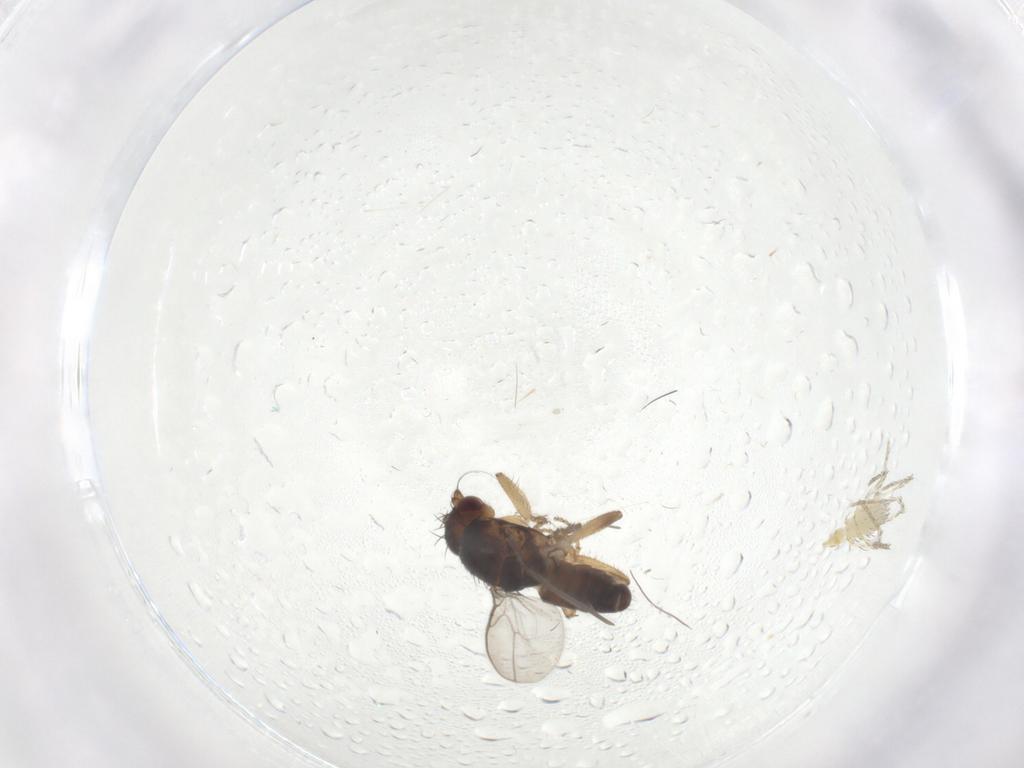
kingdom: Animalia
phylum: Arthropoda
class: Insecta
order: Diptera
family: Sphaeroceridae
